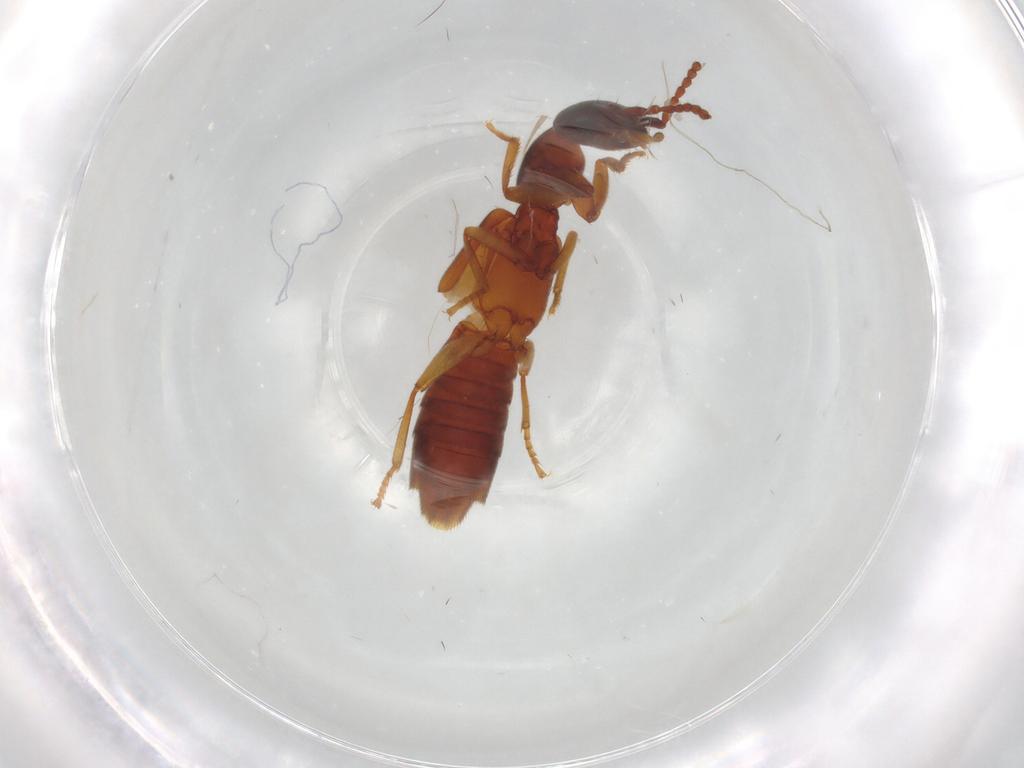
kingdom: Animalia
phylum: Arthropoda
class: Insecta
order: Coleoptera
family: Staphylinidae
